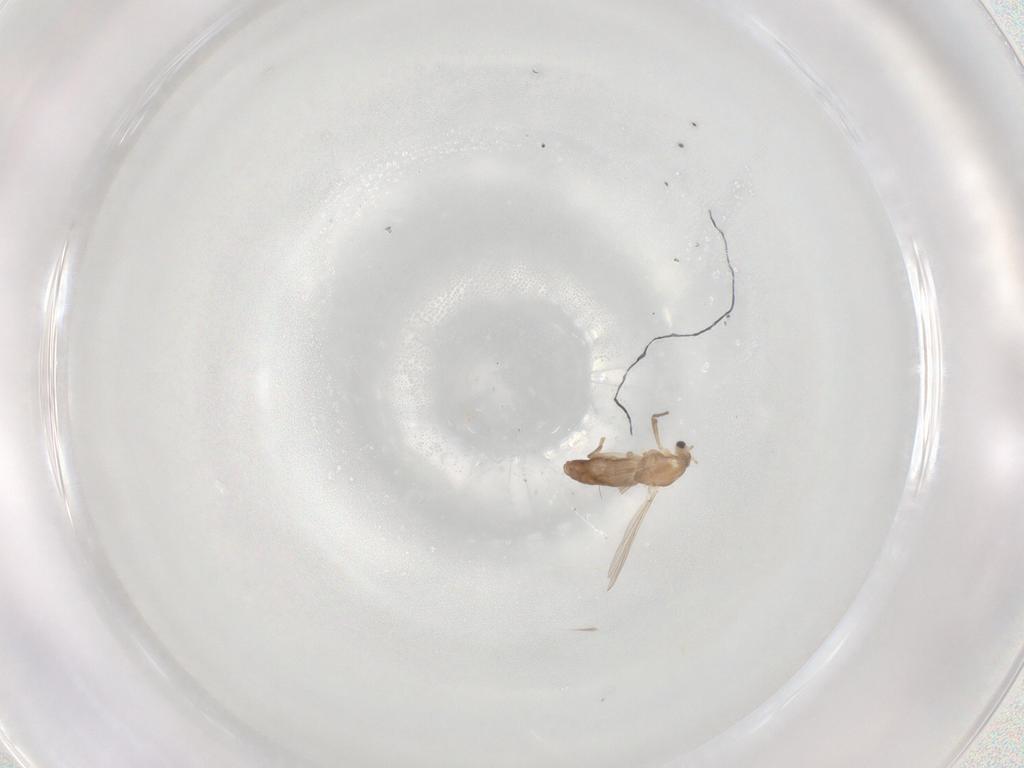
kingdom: Animalia
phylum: Arthropoda
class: Insecta
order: Diptera
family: Chironomidae
